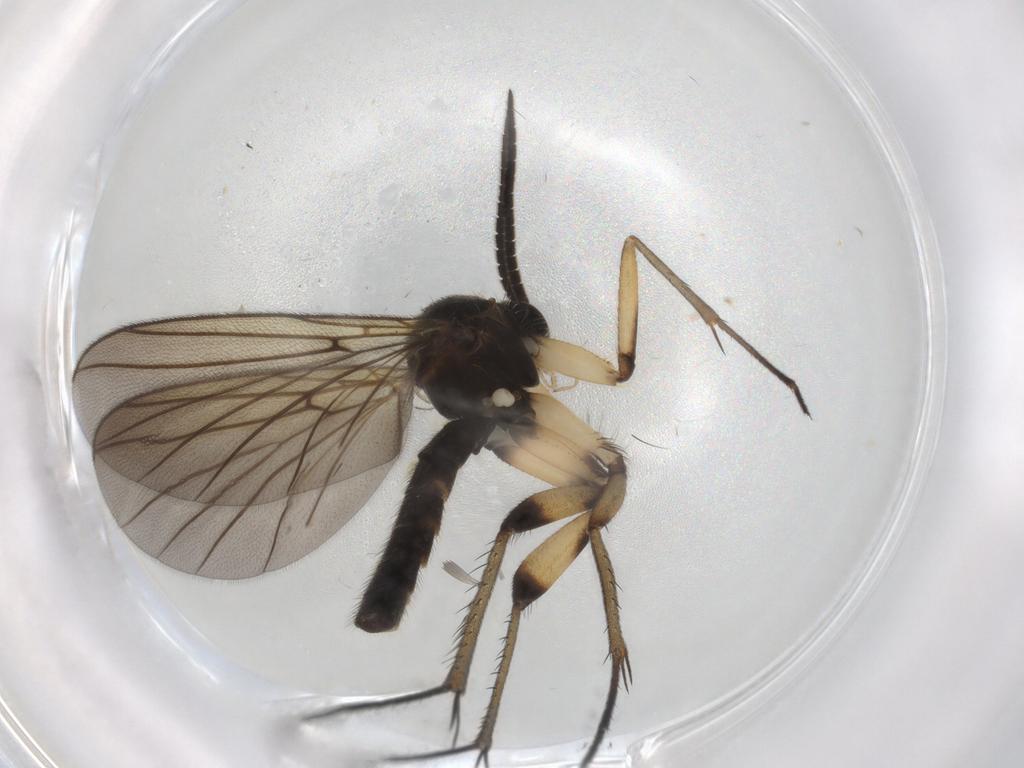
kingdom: Animalia
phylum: Arthropoda
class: Insecta
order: Diptera
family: Mycetophilidae
